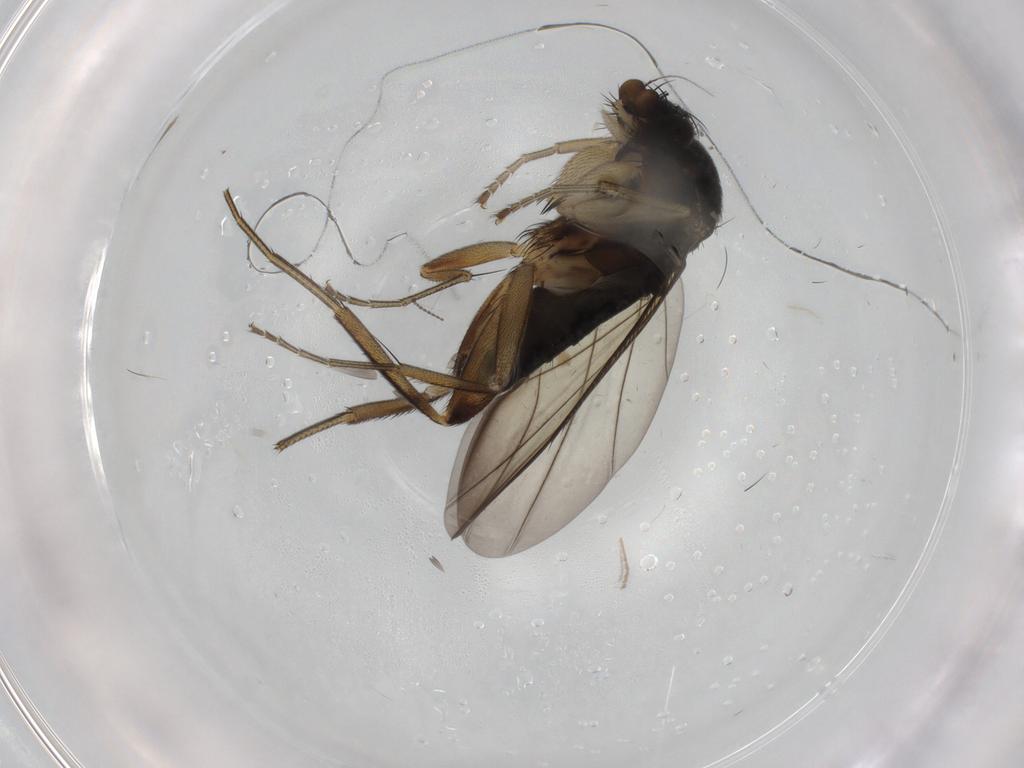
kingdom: Animalia
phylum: Arthropoda
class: Insecta
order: Diptera
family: Phoridae
